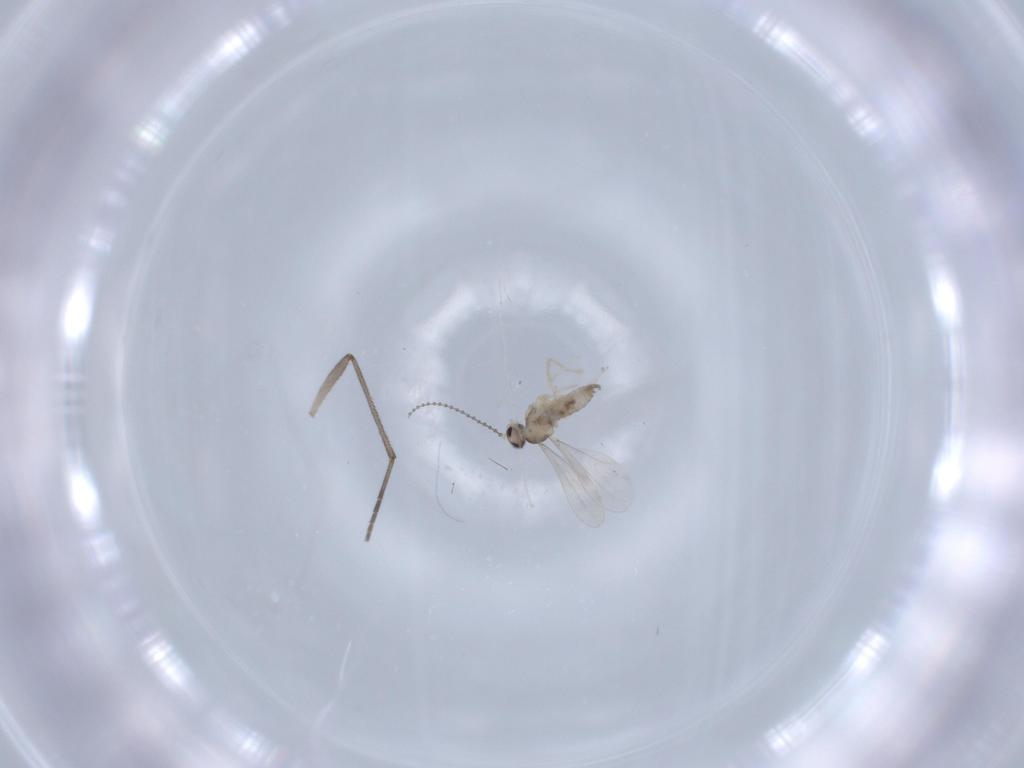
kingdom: Animalia
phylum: Arthropoda
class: Insecta
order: Diptera
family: Cecidomyiidae
